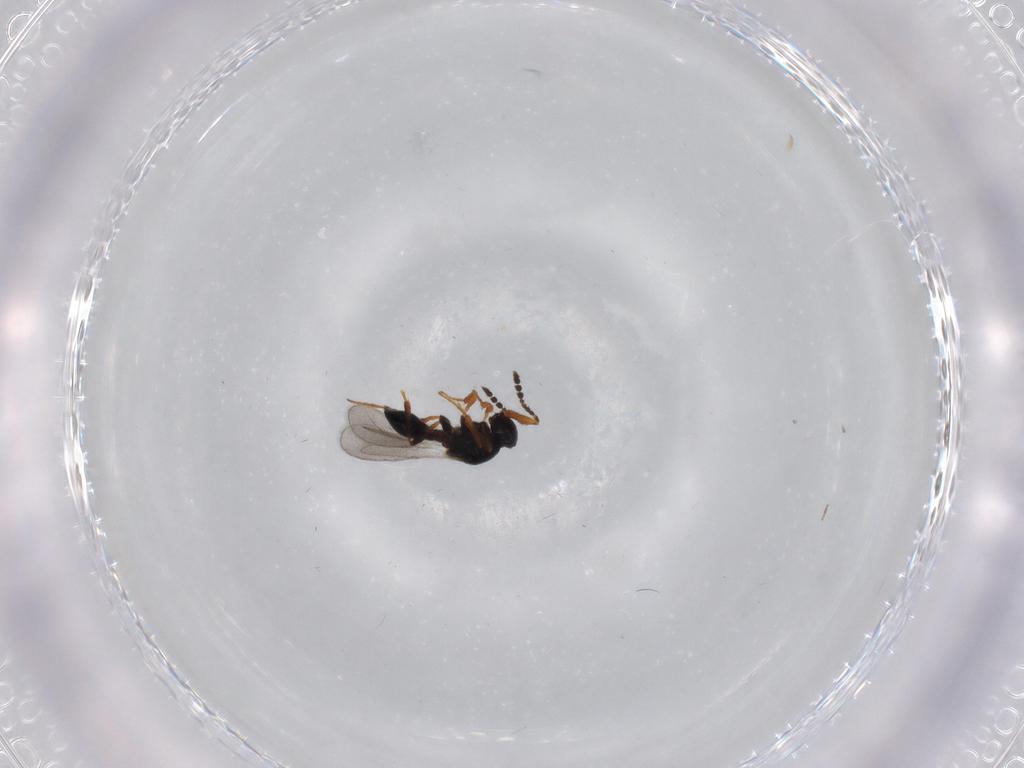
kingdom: Animalia
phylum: Arthropoda
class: Insecta
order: Hymenoptera
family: Platygastridae
